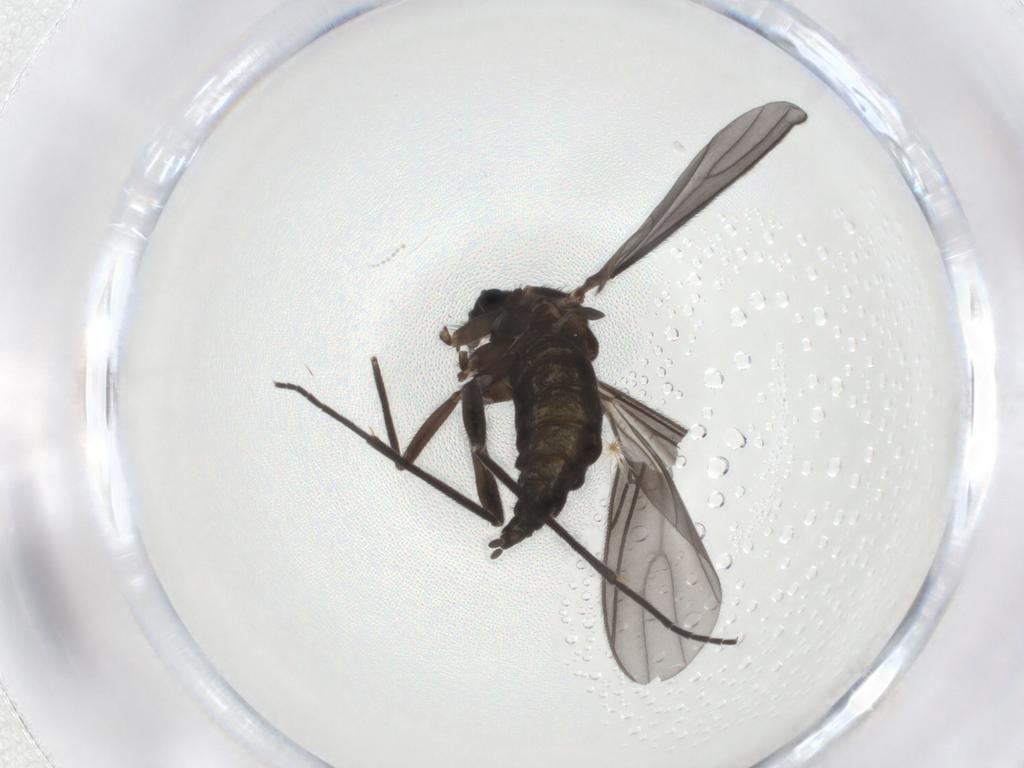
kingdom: Animalia
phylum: Arthropoda
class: Insecta
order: Diptera
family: Sciaridae
